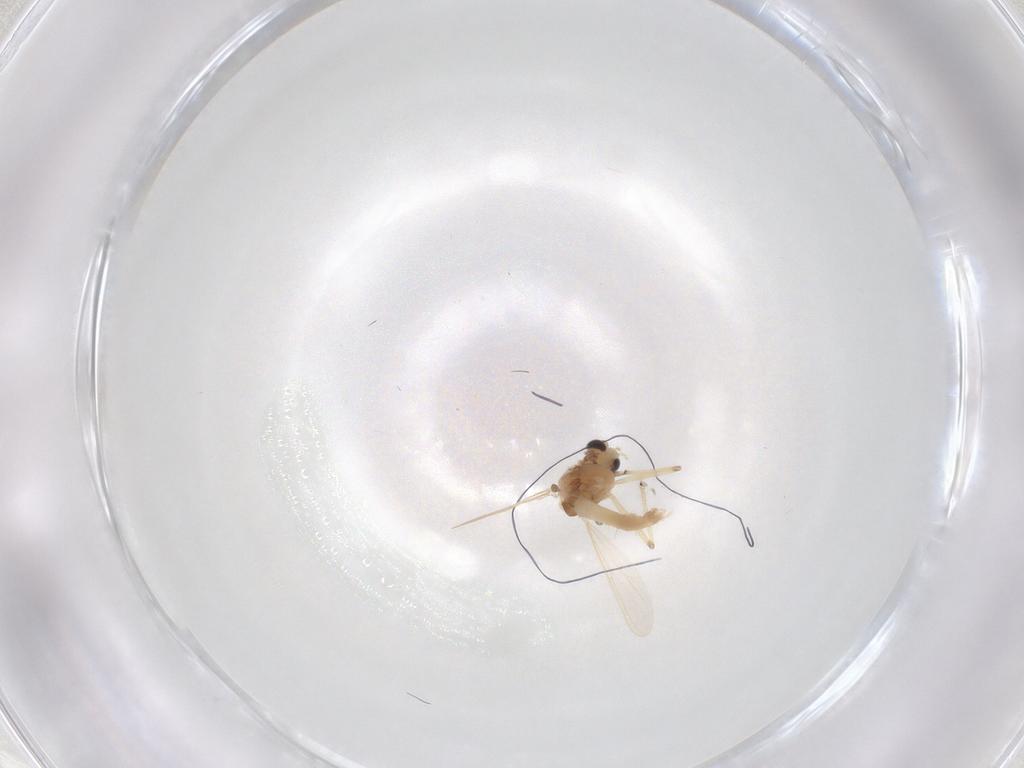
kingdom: Animalia
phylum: Arthropoda
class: Insecta
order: Diptera
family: Chironomidae
